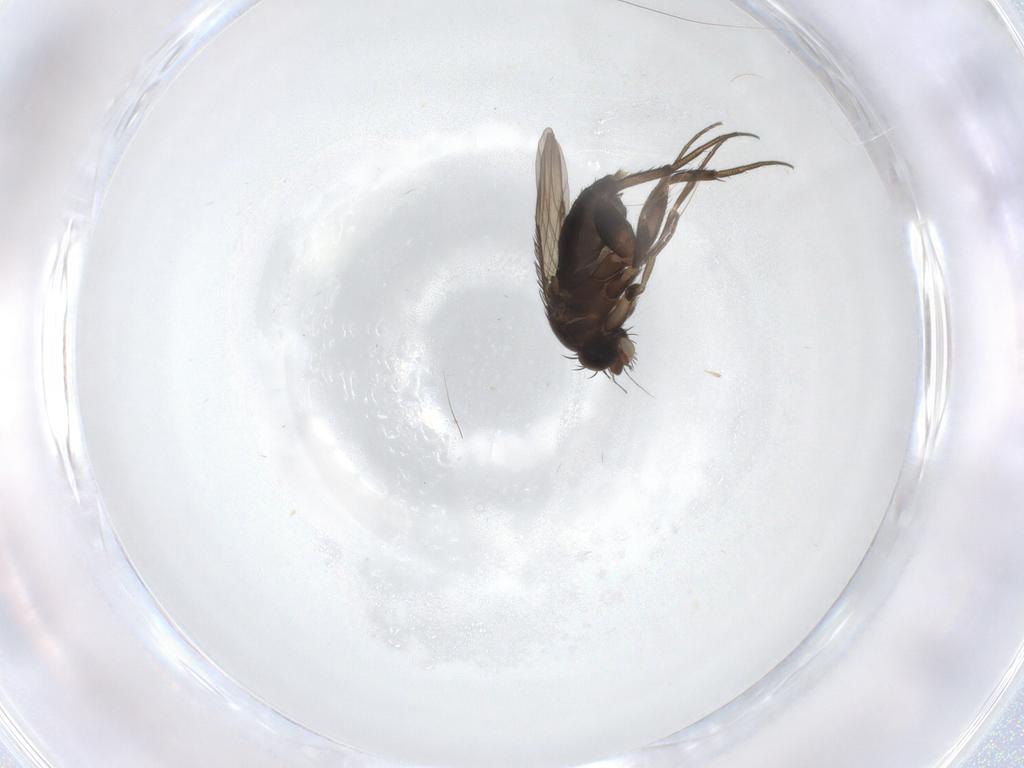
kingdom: Animalia
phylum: Arthropoda
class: Insecta
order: Diptera
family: Phoridae
